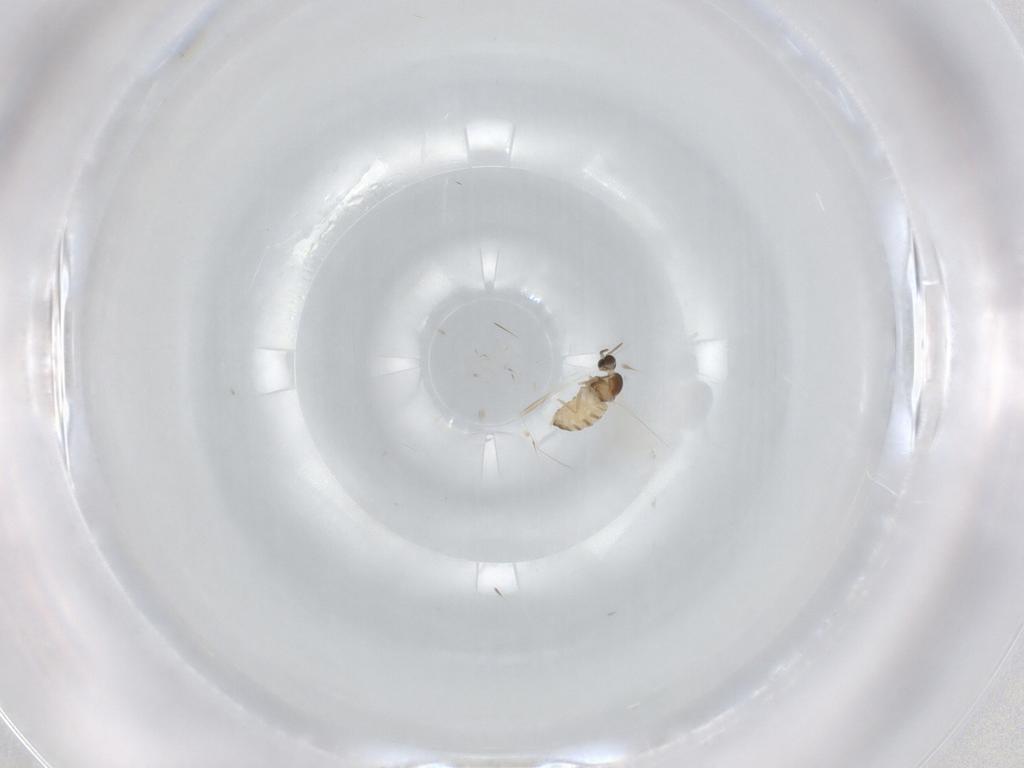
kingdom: Animalia
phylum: Arthropoda
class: Insecta
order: Diptera
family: Cecidomyiidae
